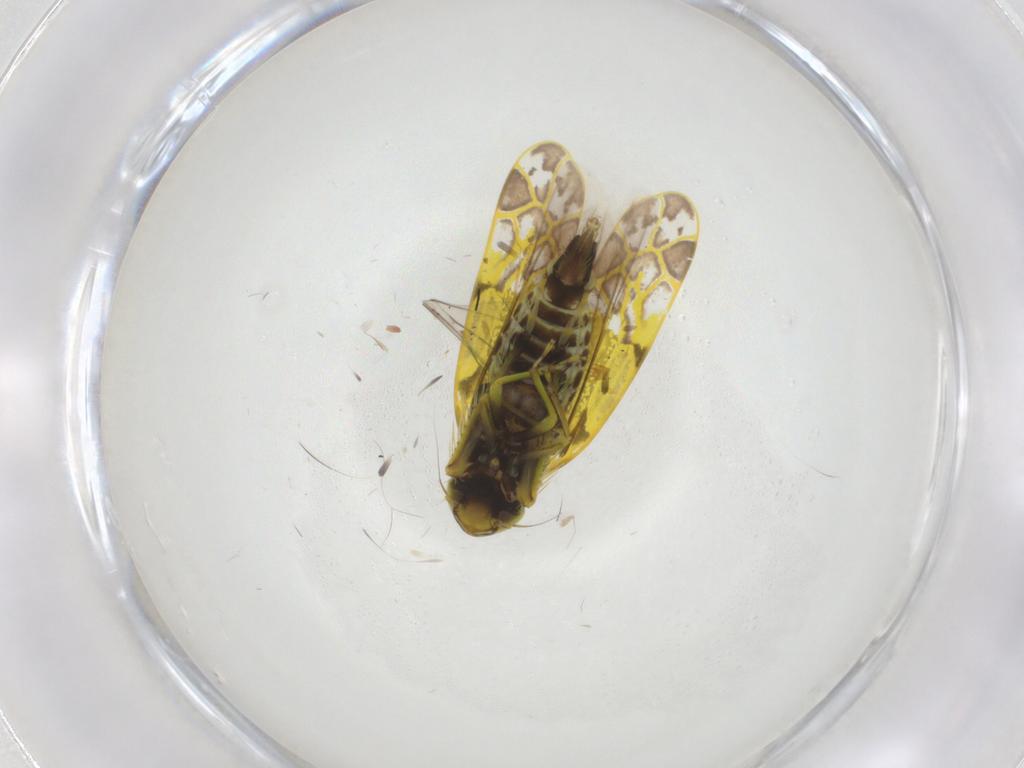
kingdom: Animalia
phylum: Arthropoda
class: Insecta
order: Hemiptera
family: Cicadellidae
